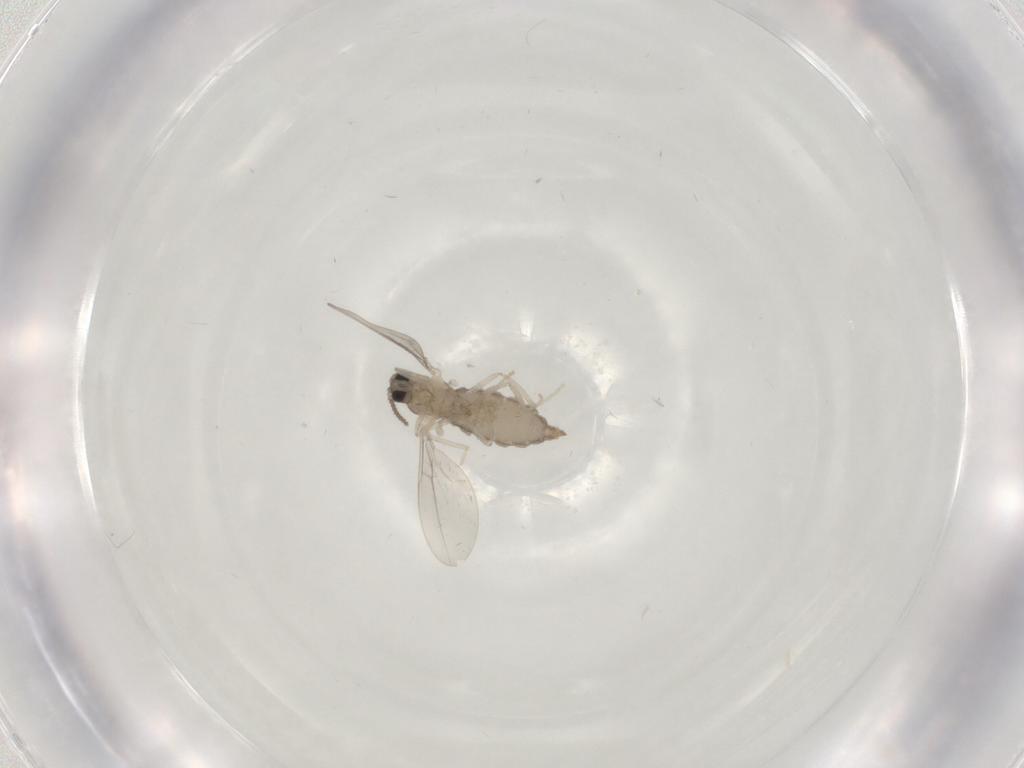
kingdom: Animalia
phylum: Arthropoda
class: Insecta
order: Diptera
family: Cecidomyiidae
